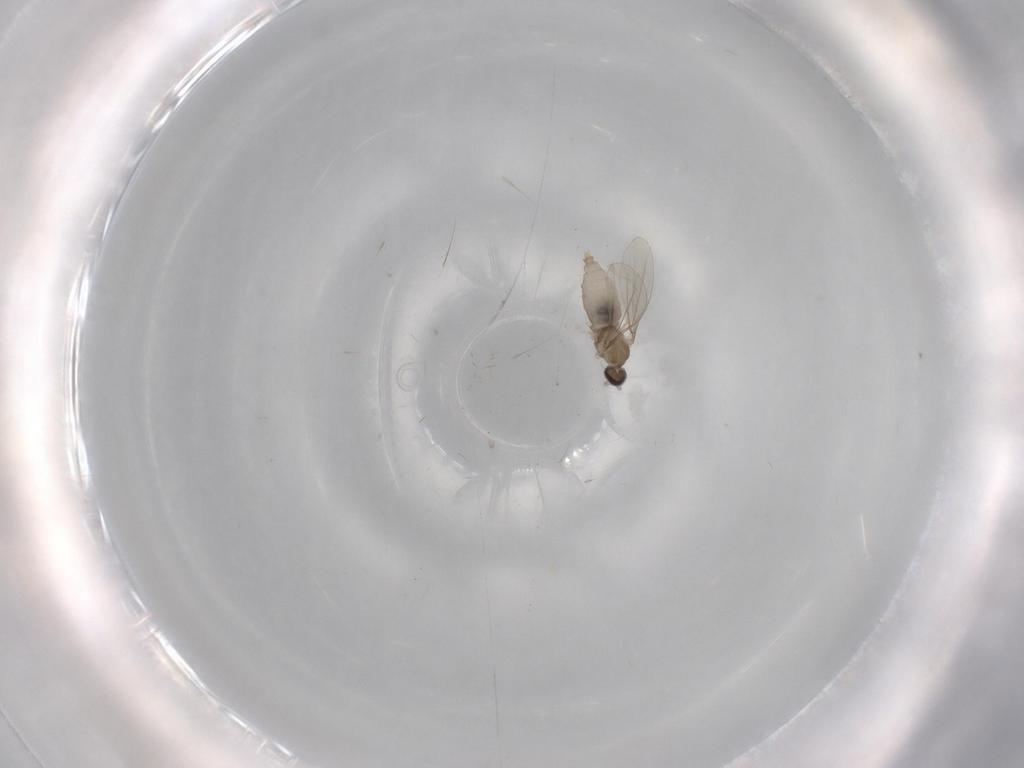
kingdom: Animalia
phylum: Arthropoda
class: Insecta
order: Diptera
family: Cecidomyiidae
